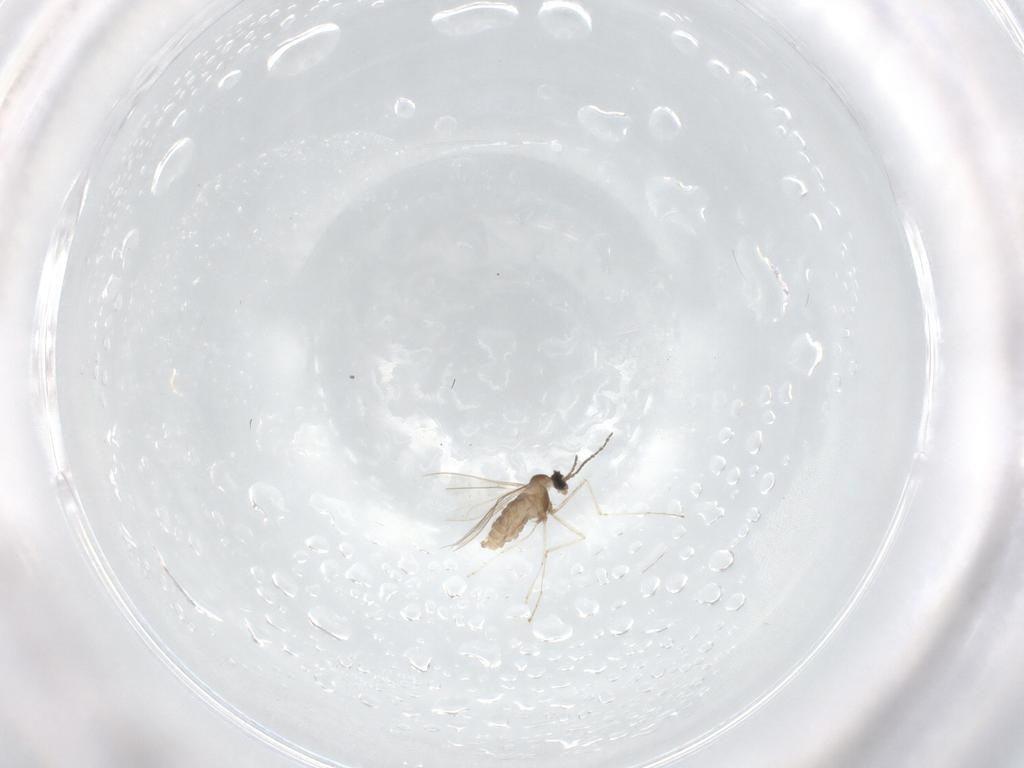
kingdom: Animalia
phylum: Arthropoda
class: Insecta
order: Diptera
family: Cecidomyiidae
